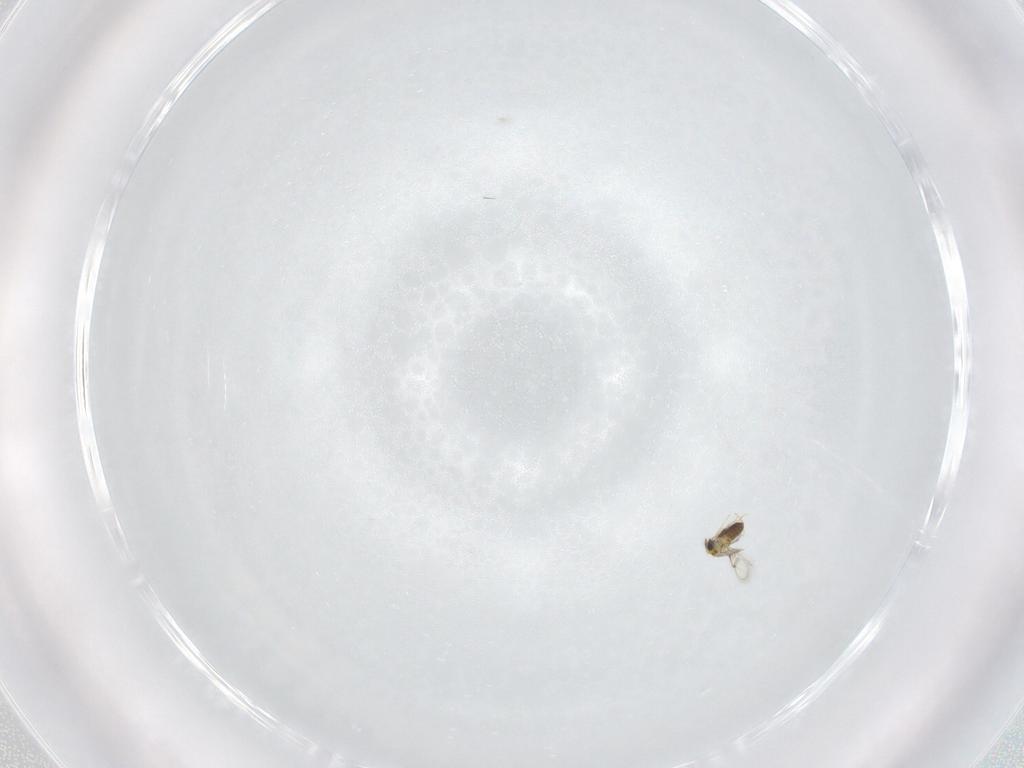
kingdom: Animalia
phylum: Arthropoda
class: Insecta
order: Hymenoptera
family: Mymaridae
